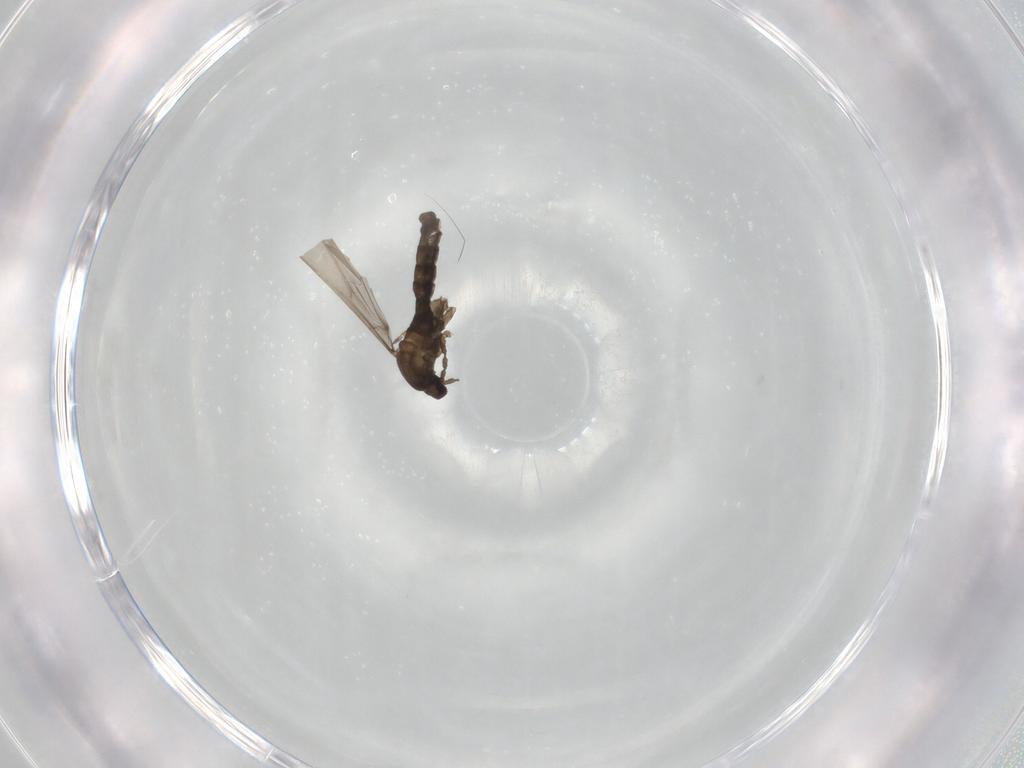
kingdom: Animalia
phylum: Arthropoda
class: Insecta
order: Diptera
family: Cecidomyiidae
